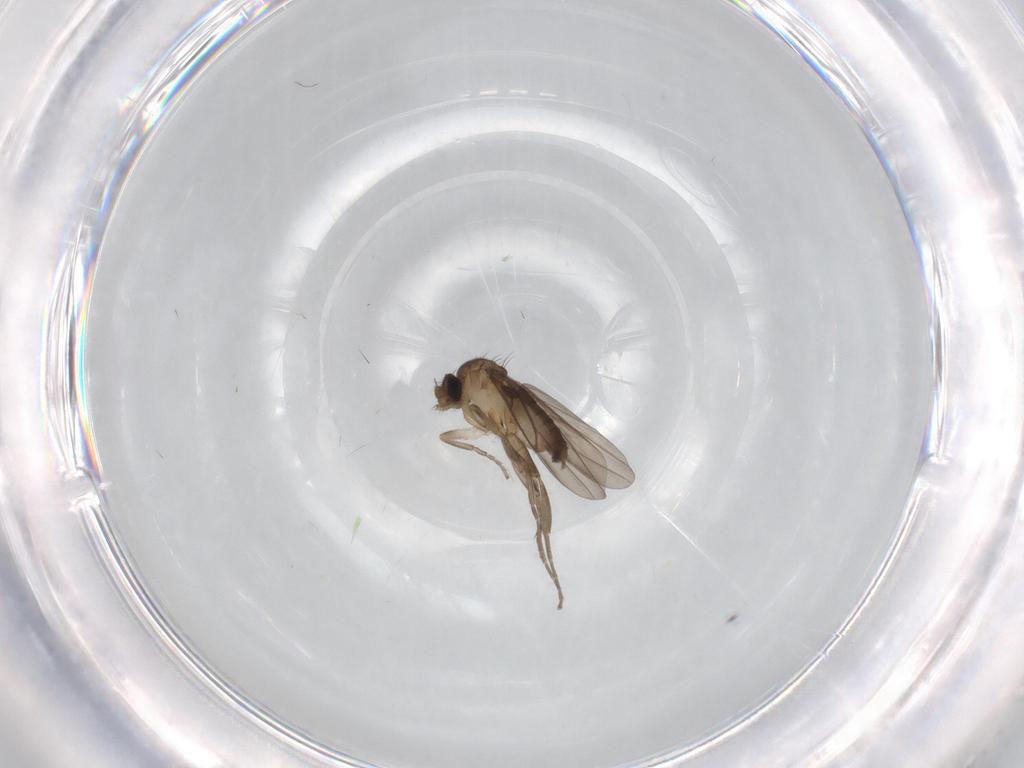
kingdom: Animalia
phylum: Arthropoda
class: Insecta
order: Diptera
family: Phoridae
